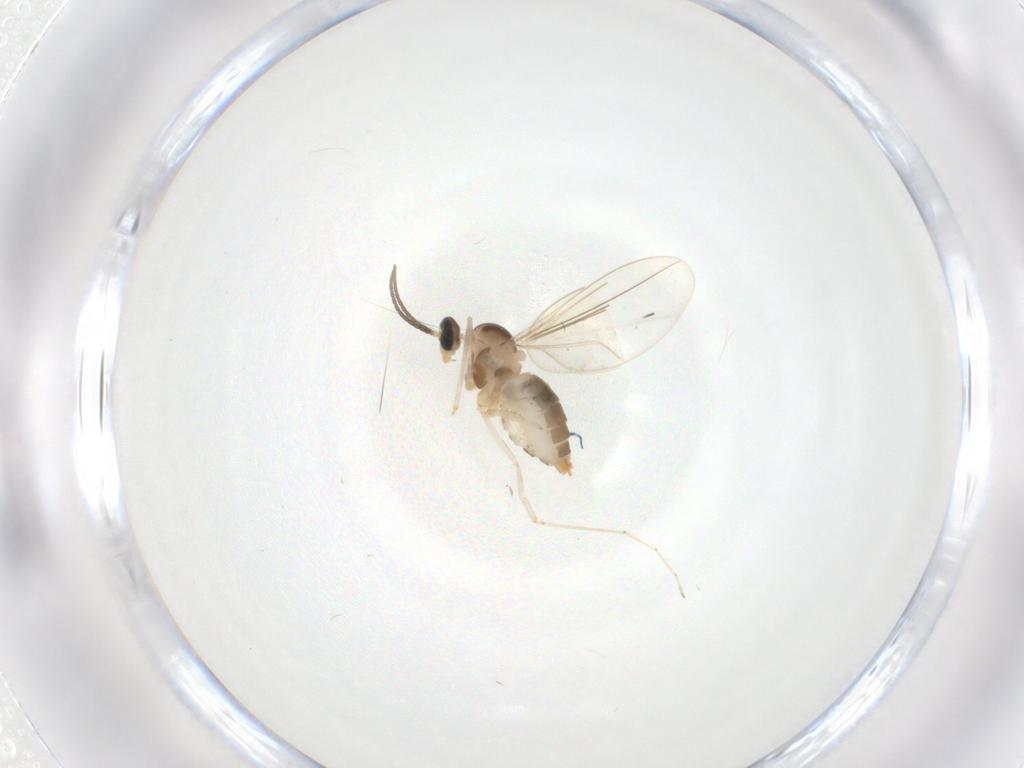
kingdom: Animalia
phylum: Arthropoda
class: Insecta
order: Diptera
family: Cecidomyiidae
